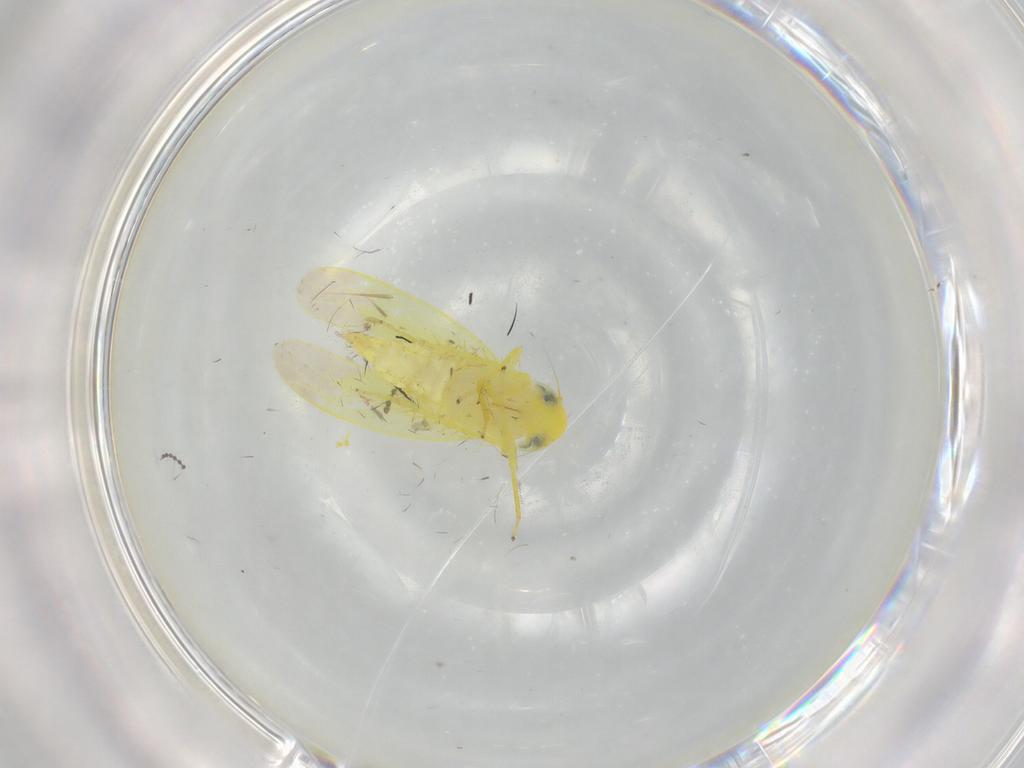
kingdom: Animalia
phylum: Arthropoda
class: Insecta
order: Hemiptera
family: Cicadellidae
